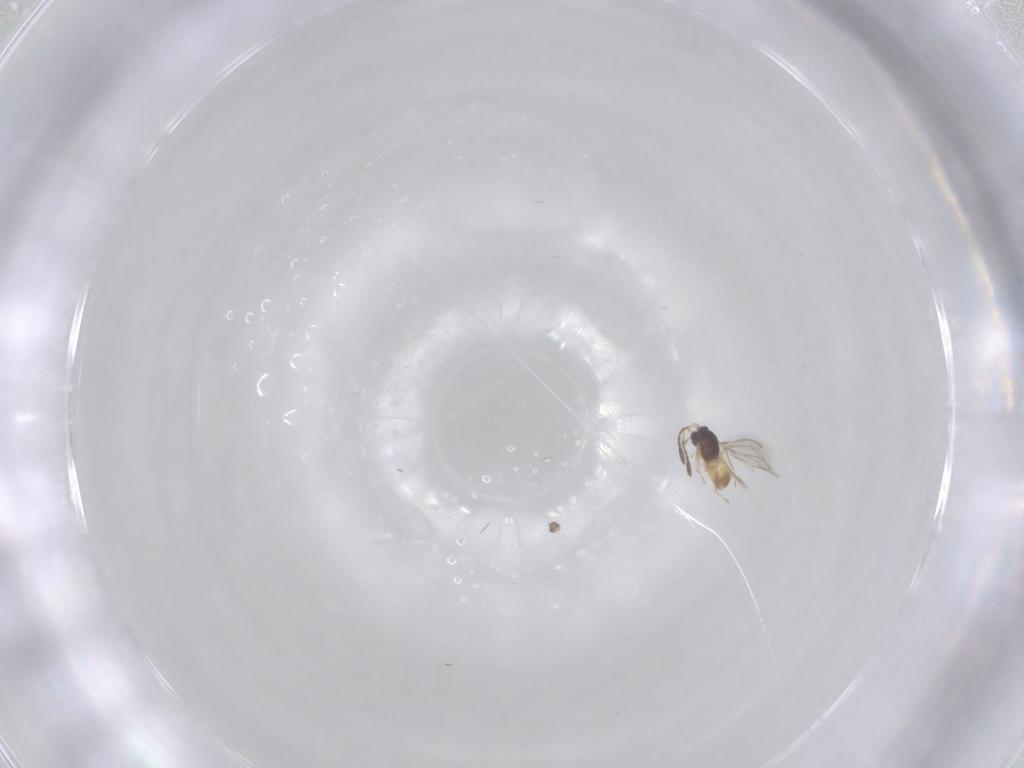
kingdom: Animalia
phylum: Arthropoda
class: Insecta
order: Hymenoptera
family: Mymaridae
